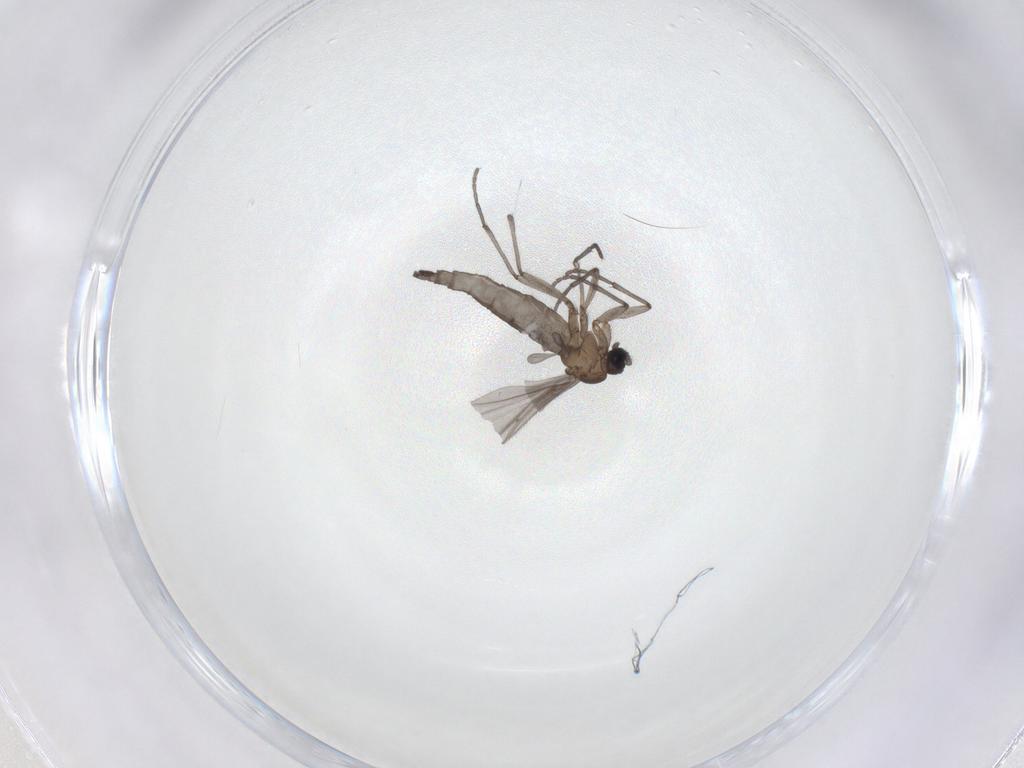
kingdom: Animalia
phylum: Arthropoda
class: Insecta
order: Diptera
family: Sciaridae
